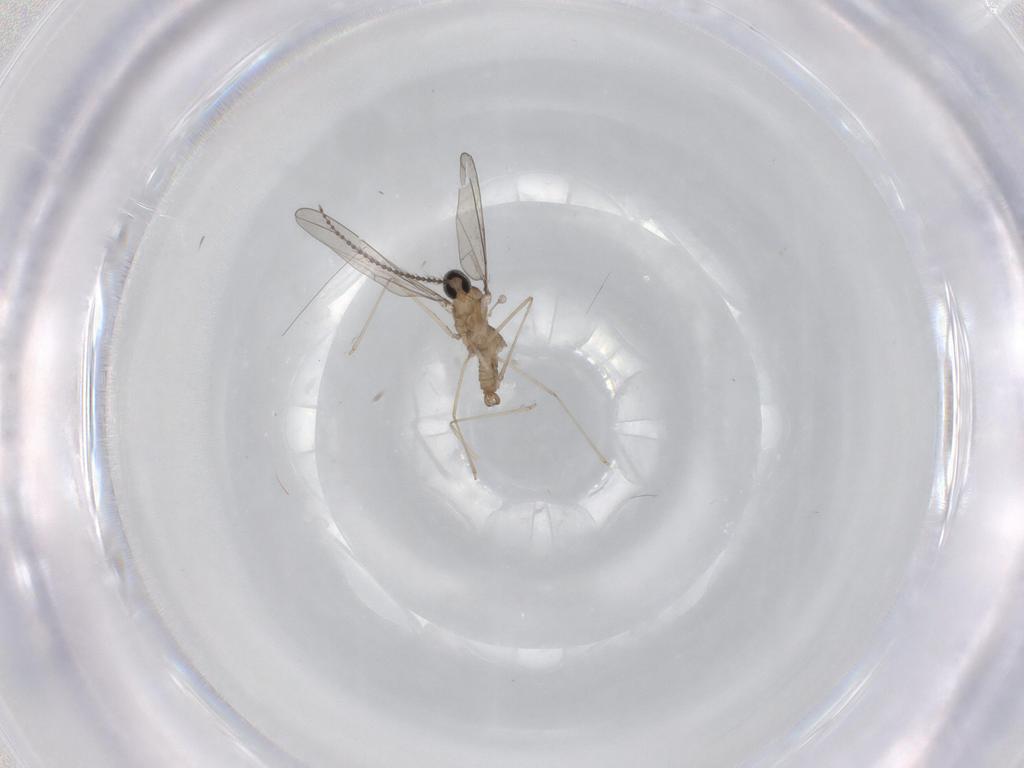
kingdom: Animalia
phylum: Arthropoda
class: Insecta
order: Diptera
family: Cecidomyiidae
